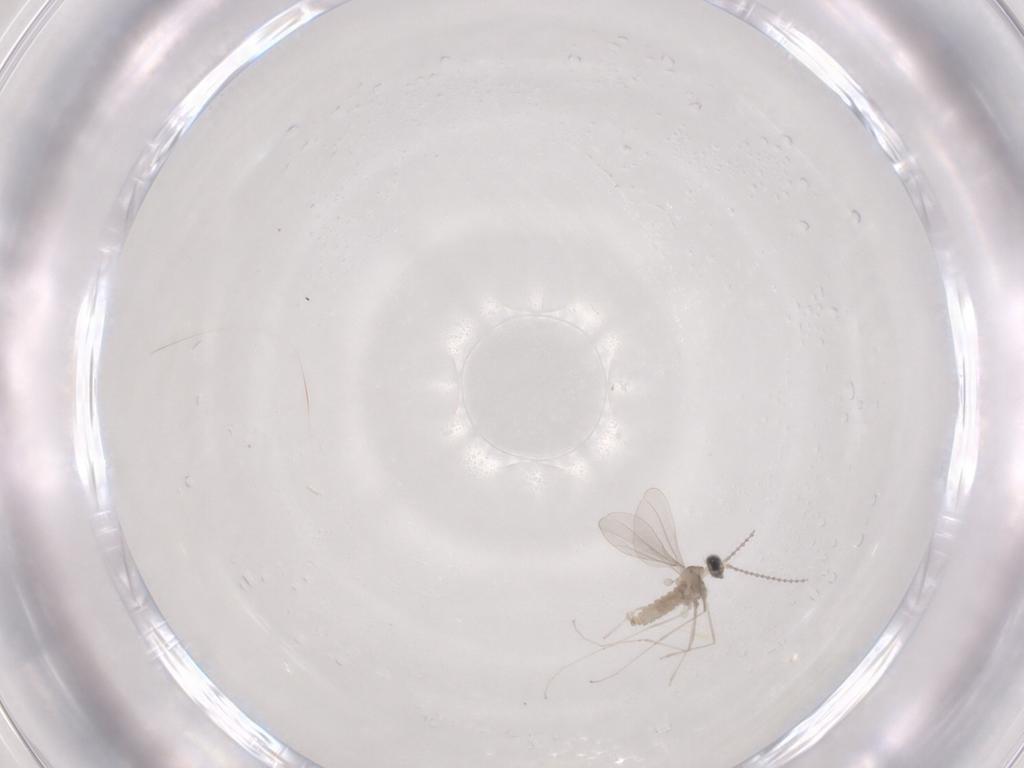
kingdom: Animalia
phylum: Arthropoda
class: Insecta
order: Diptera
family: Cecidomyiidae
